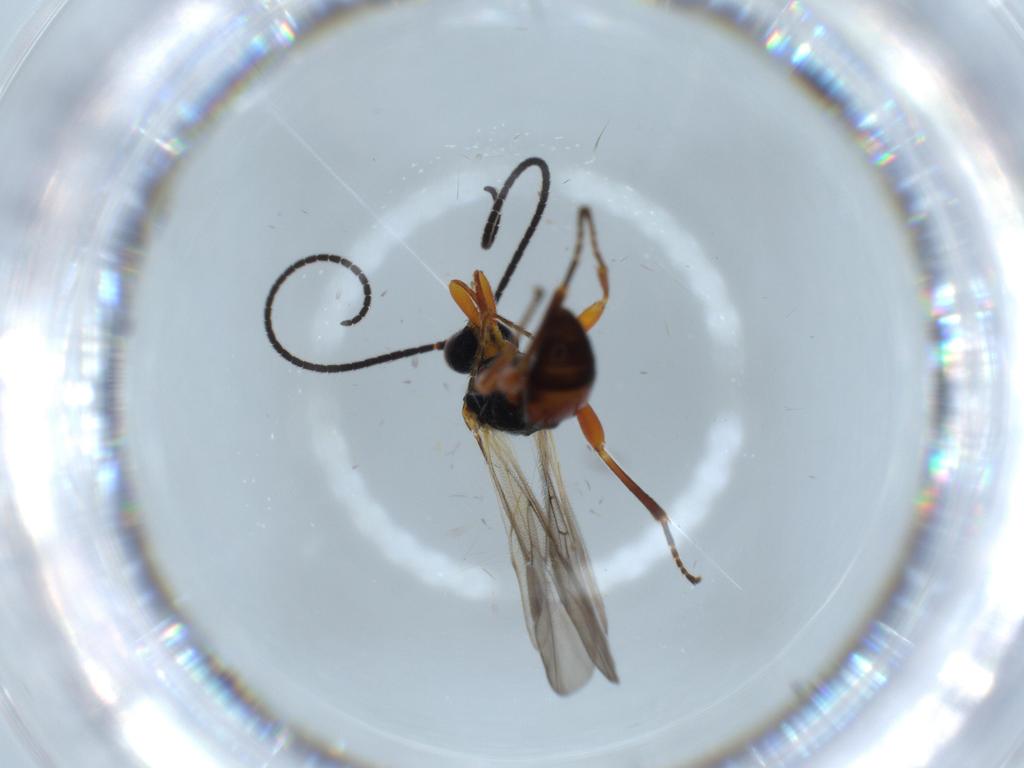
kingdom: Animalia
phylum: Arthropoda
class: Insecta
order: Hymenoptera
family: Braconidae
